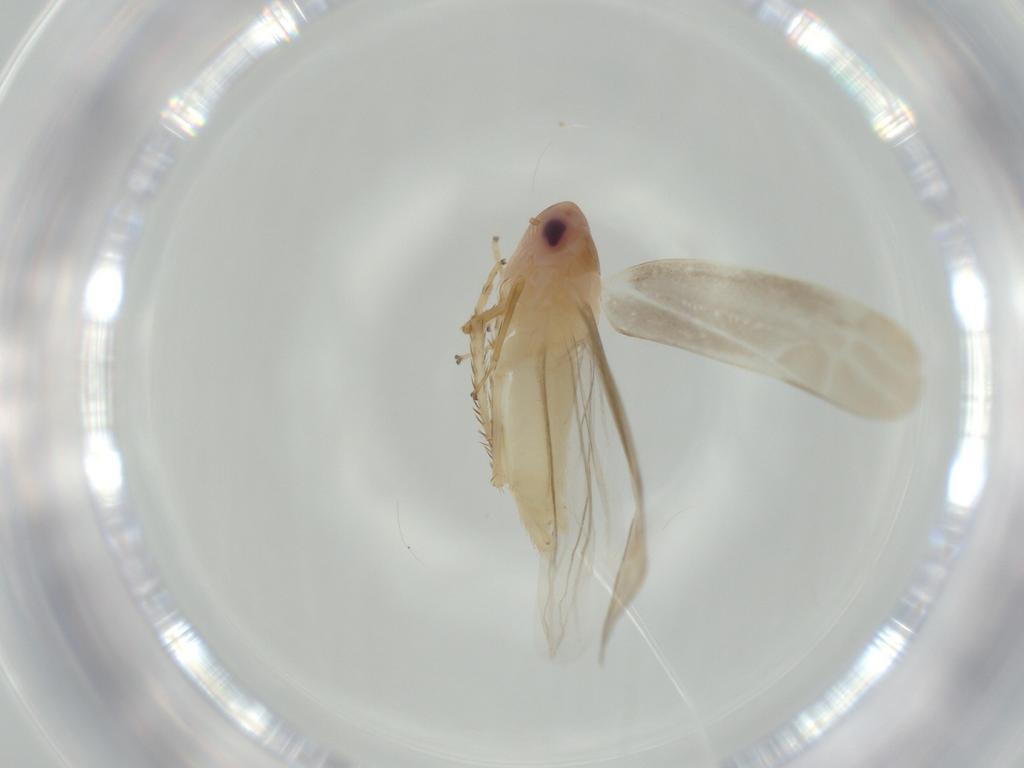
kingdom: Animalia
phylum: Arthropoda
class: Insecta
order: Hemiptera
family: Cicadellidae
